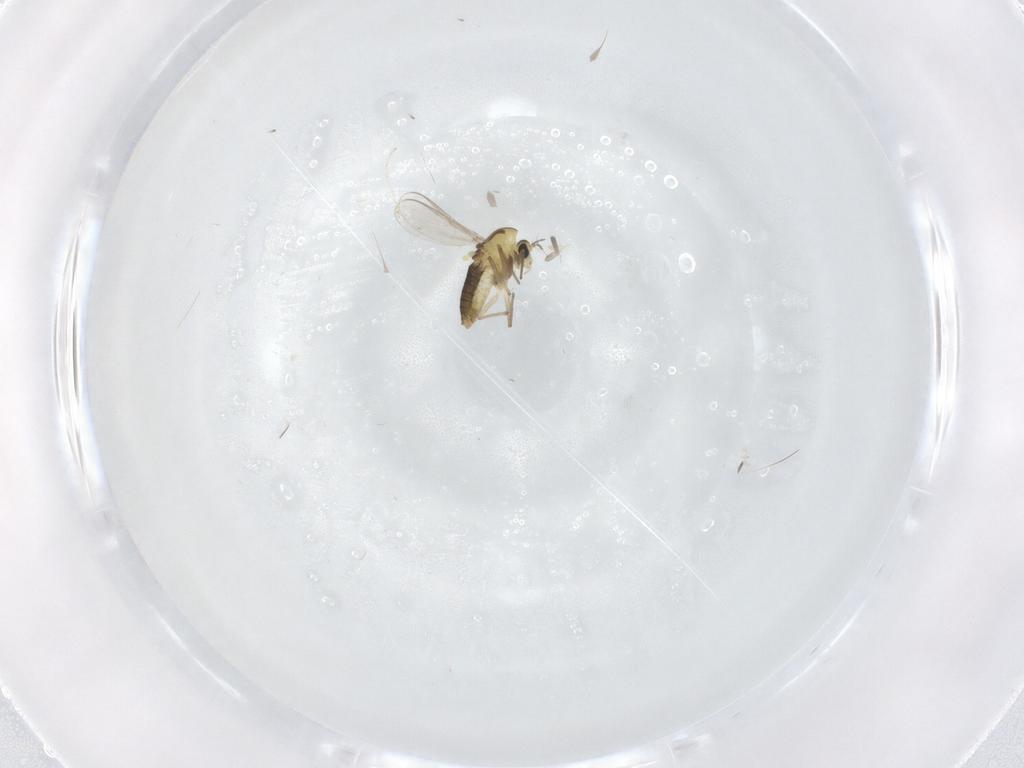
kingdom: Animalia
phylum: Arthropoda
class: Insecta
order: Diptera
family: Chironomidae
